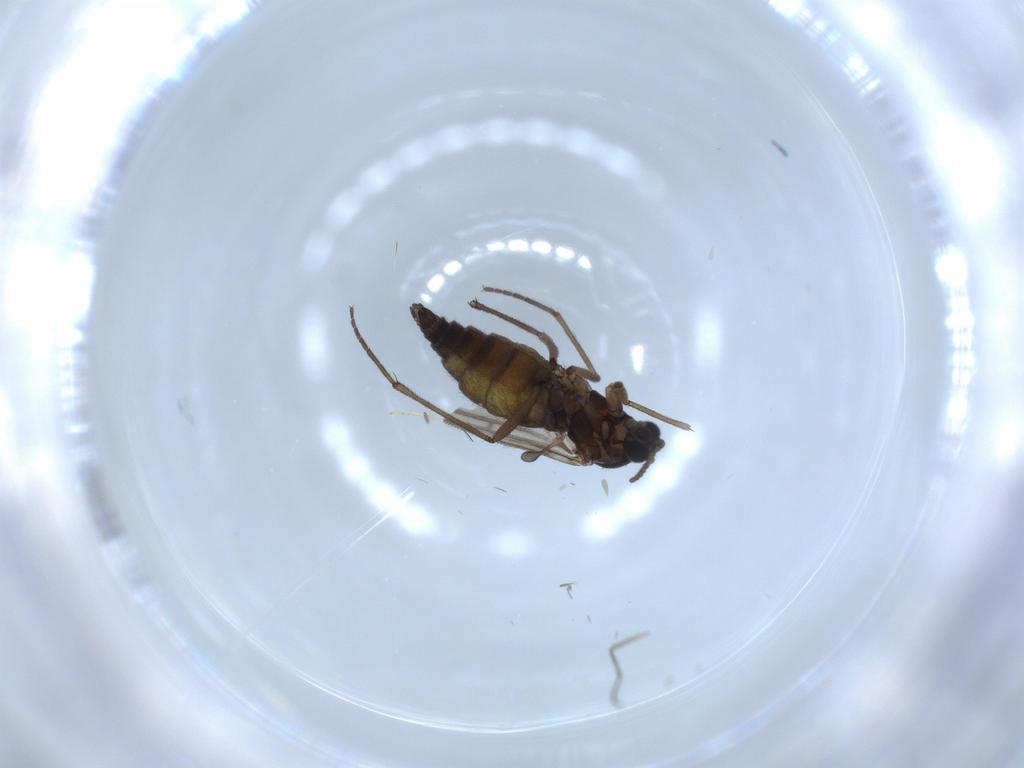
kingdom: Animalia
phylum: Arthropoda
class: Insecta
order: Diptera
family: Sciaridae
